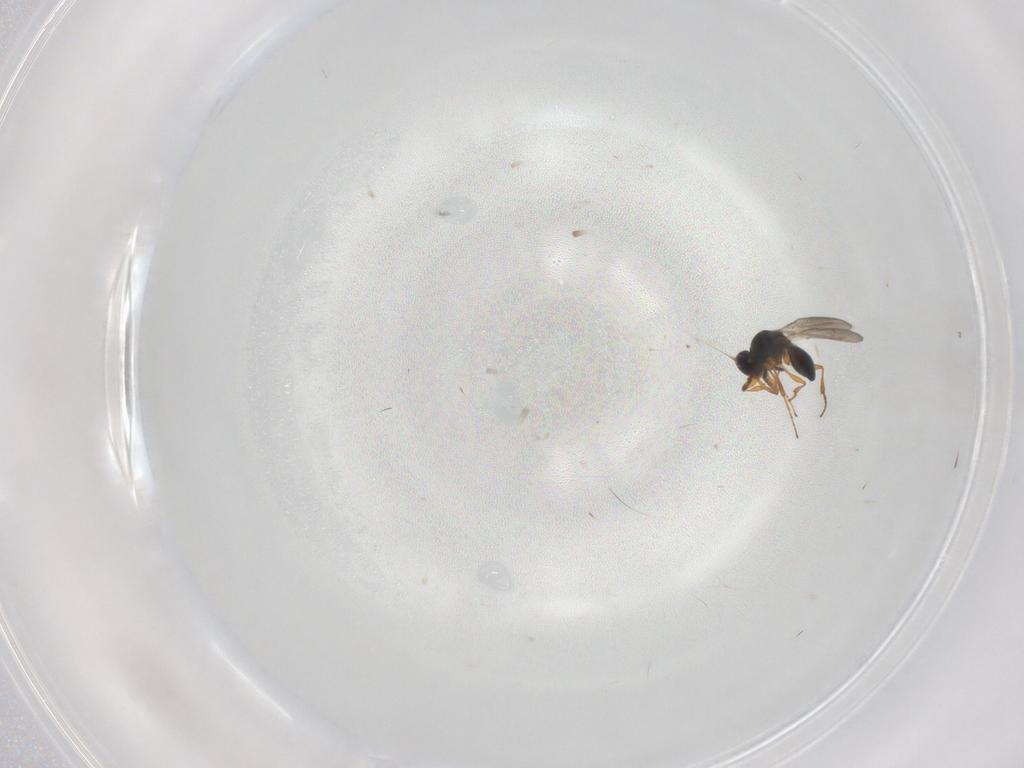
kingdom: Animalia
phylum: Arthropoda
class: Insecta
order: Hymenoptera
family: Platygastridae
